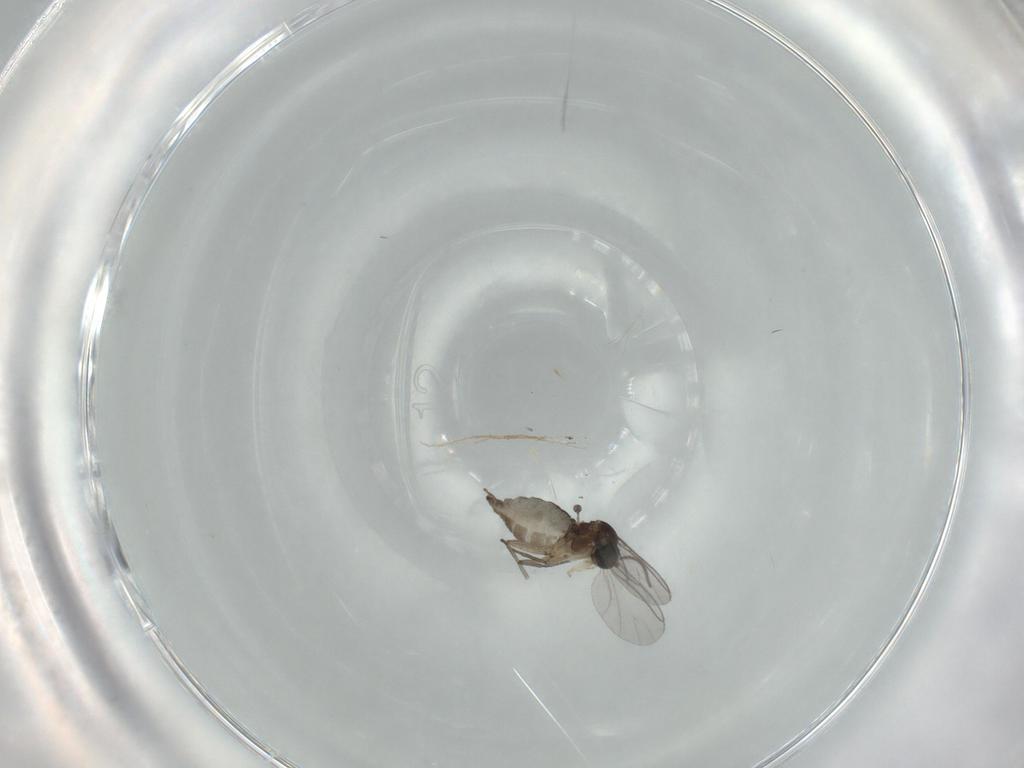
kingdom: Animalia
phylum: Arthropoda
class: Insecta
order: Diptera
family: Sciaridae
